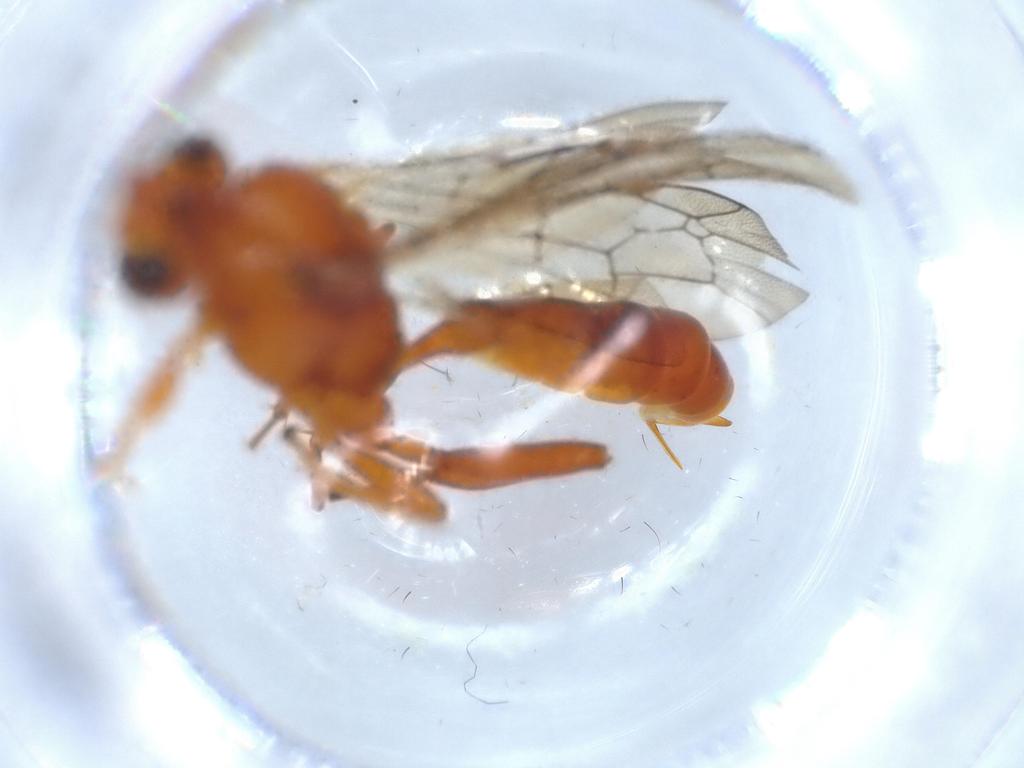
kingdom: Animalia
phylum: Arthropoda
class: Insecta
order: Hymenoptera
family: Ichneumonidae
